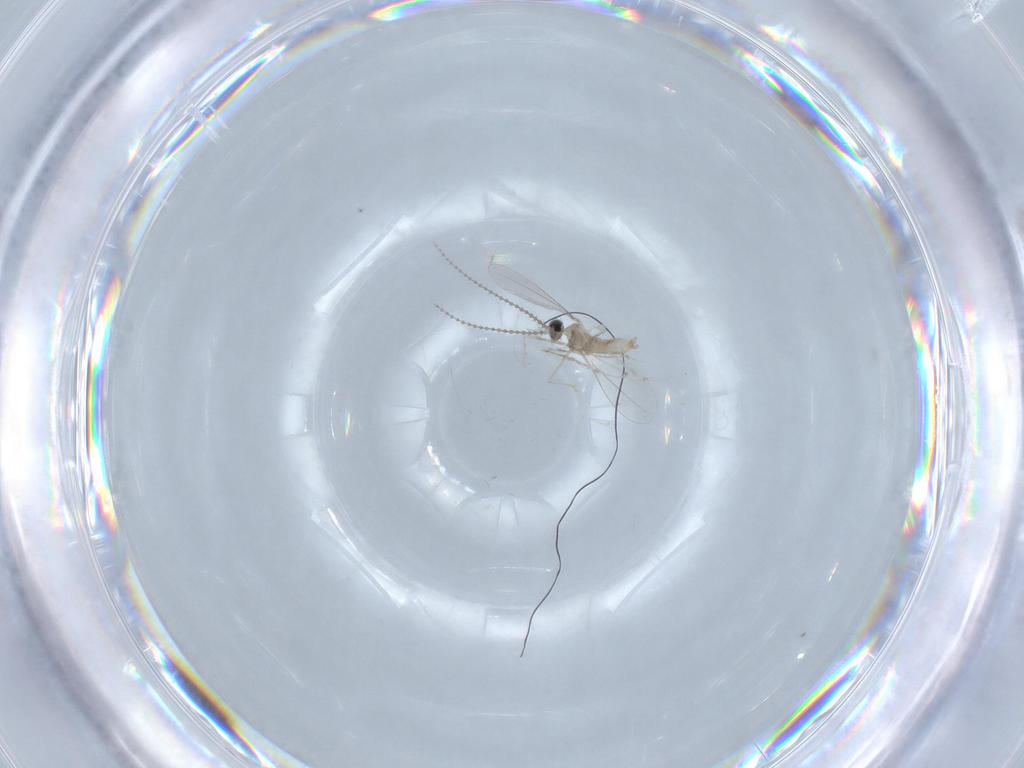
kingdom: Animalia
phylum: Arthropoda
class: Insecta
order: Diptera
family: Cecidomyiidae
